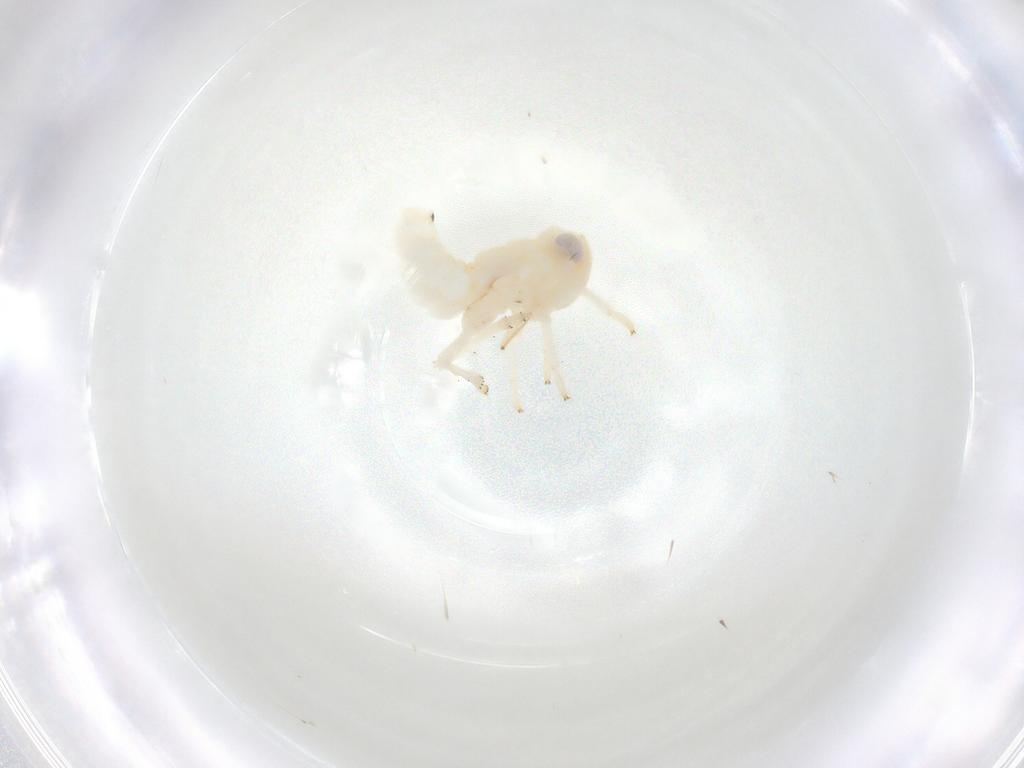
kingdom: Animalia
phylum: Arthropoda
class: Insecta
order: Hemiptera
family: Nogodinidae
